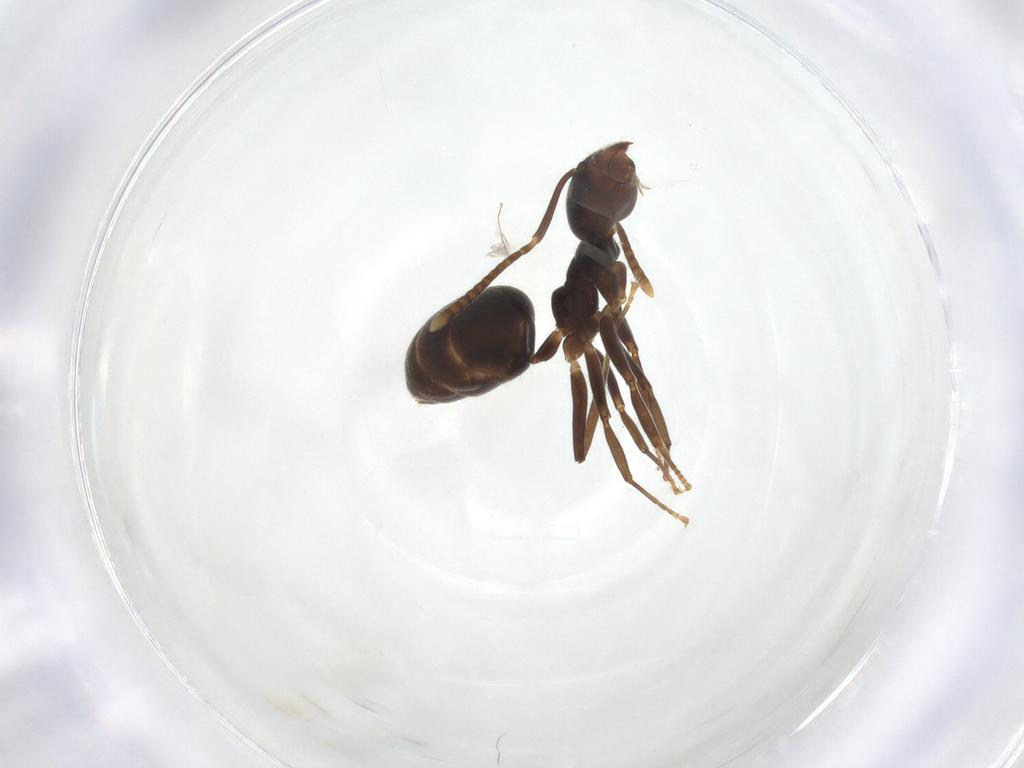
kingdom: Animalia
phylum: Arthropoda
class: Insecta
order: Hymenoptera
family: Formicidae
